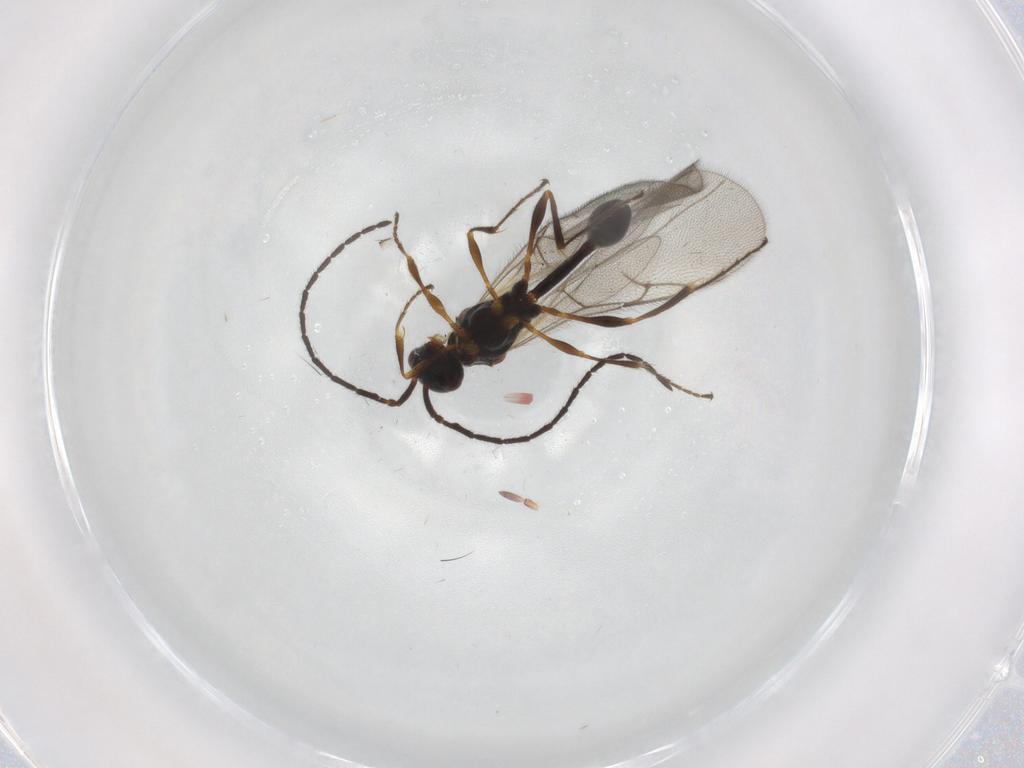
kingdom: Animalia
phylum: Arthropoda
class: Insecta
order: Hymenoptera
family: Diapriidae
